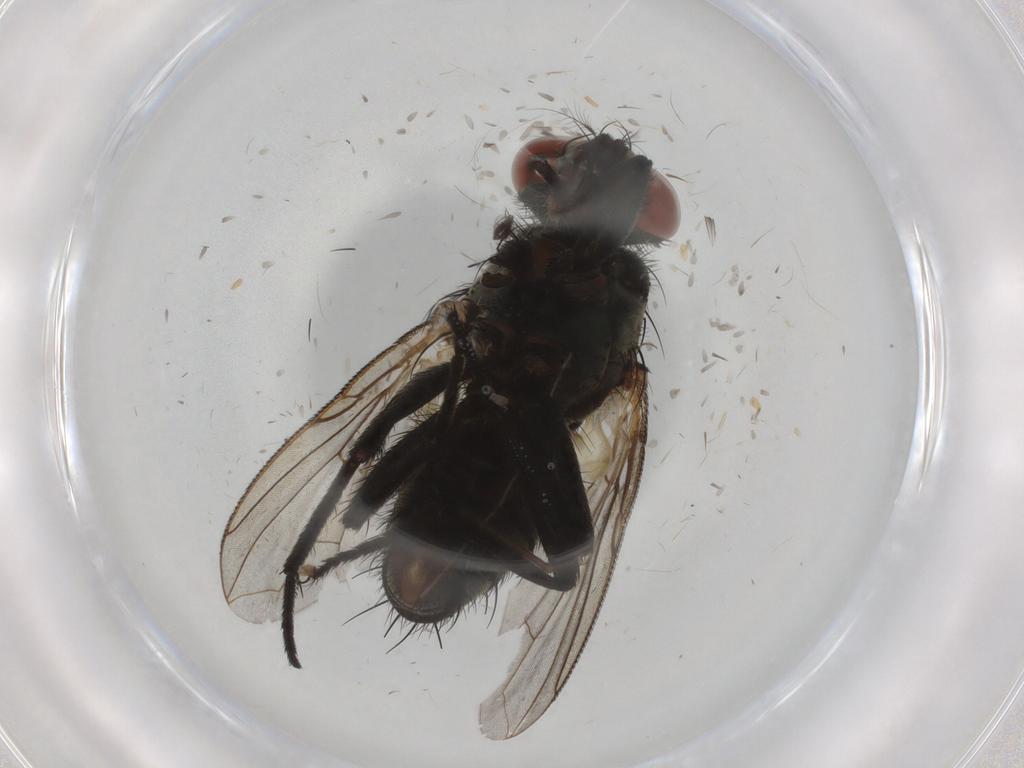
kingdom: Animalia
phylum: Arthropoda
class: Insecta
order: Diptera
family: Sarcophagidae
